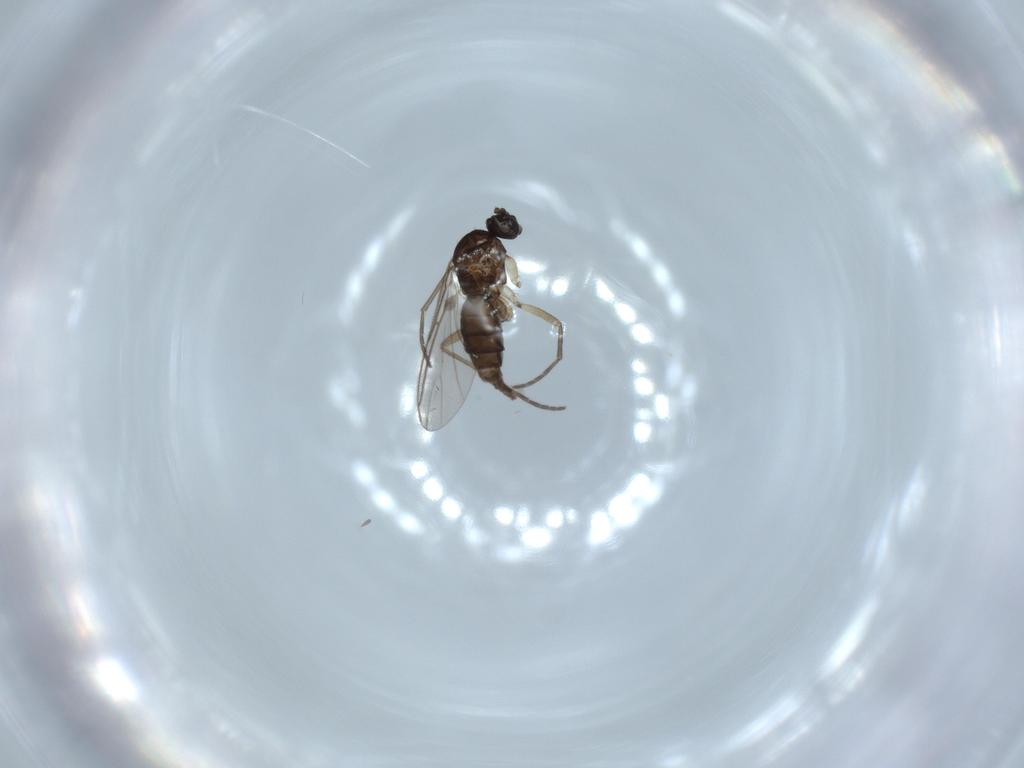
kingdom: Animalia
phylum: Arthropoda
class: Insecta
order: Diptera
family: Sciaridae
